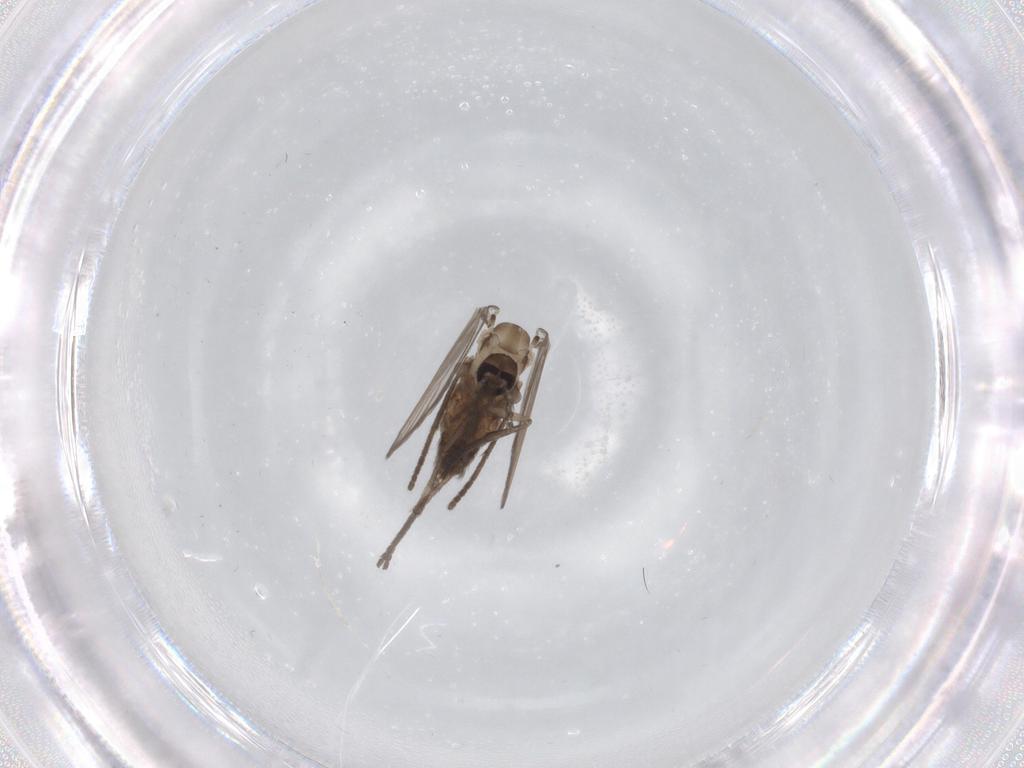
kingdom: Animalia
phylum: Arthropoda
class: Insecta
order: Diptera
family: Psychodidae
